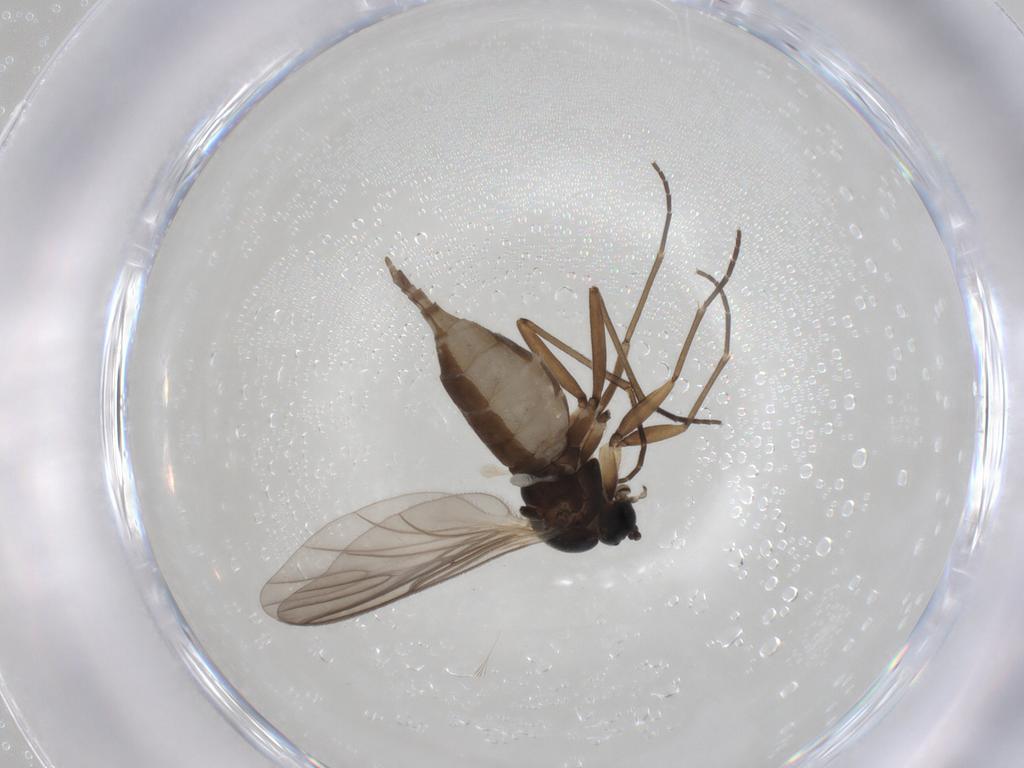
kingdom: Animalia
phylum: Arthropoda
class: Insecta
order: Diptera
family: Sciaridae
